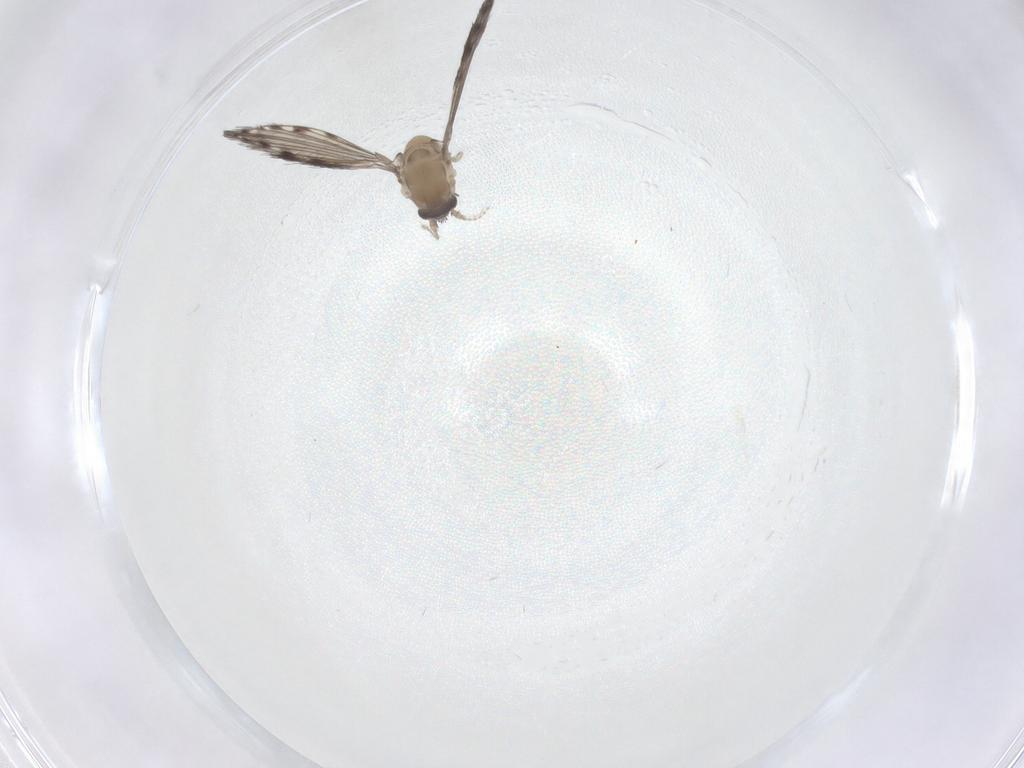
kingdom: Animalia
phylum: Arthropoda
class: Insecta
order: Diptera
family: Psychodidae
